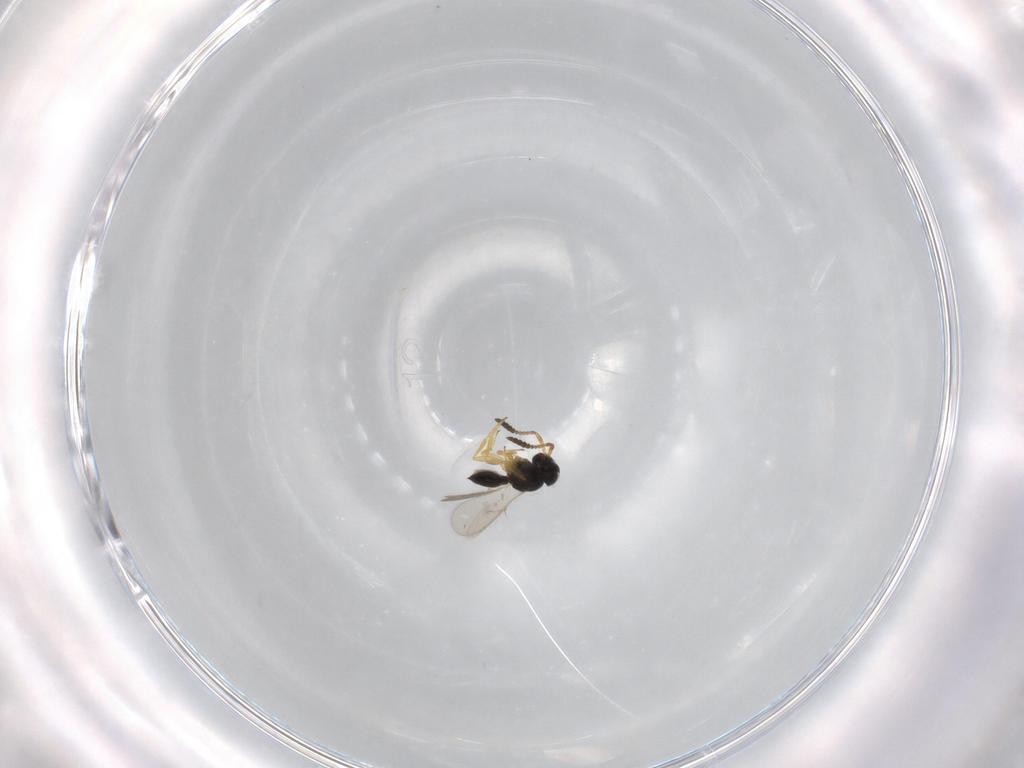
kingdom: Animalia
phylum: Arthropoda
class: Insecta
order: Hymenoptera
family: Scelionidae
